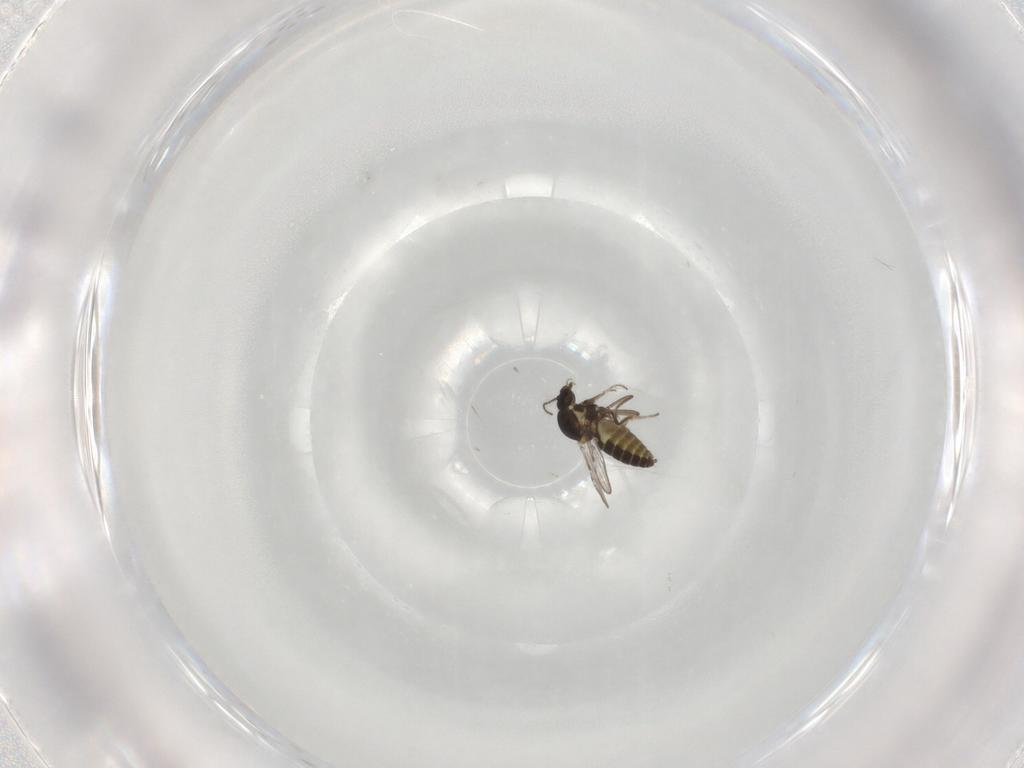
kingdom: Animalia
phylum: Arthropoda
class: Insecta
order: Diptera
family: Ceratopogonidae
